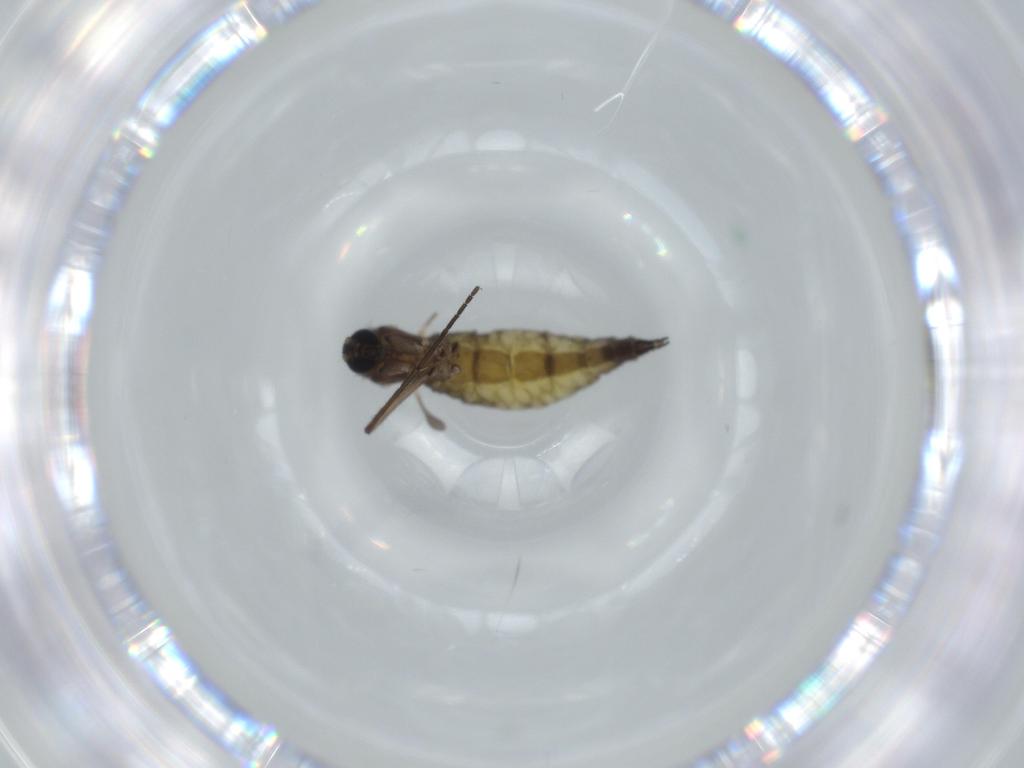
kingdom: Animalia
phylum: Arthropoda
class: Insecta
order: Diptera
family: Sciaridae
